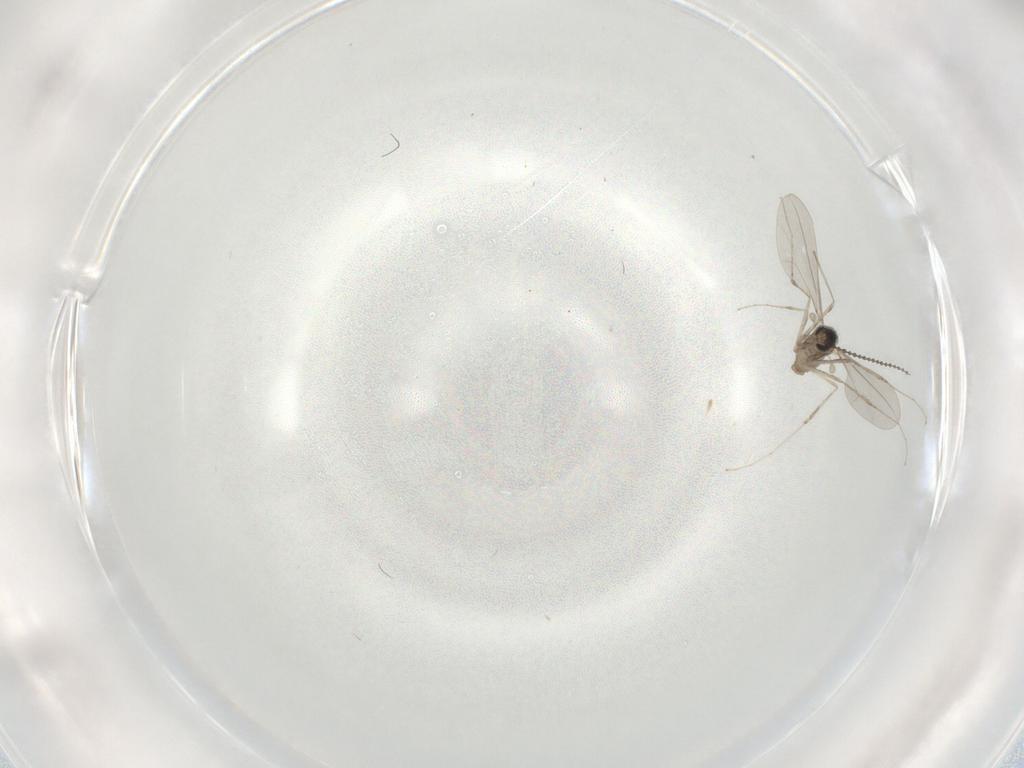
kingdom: Animalia
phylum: Arthropoda
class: Insecta
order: Diptera
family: Cecidomyiidae
